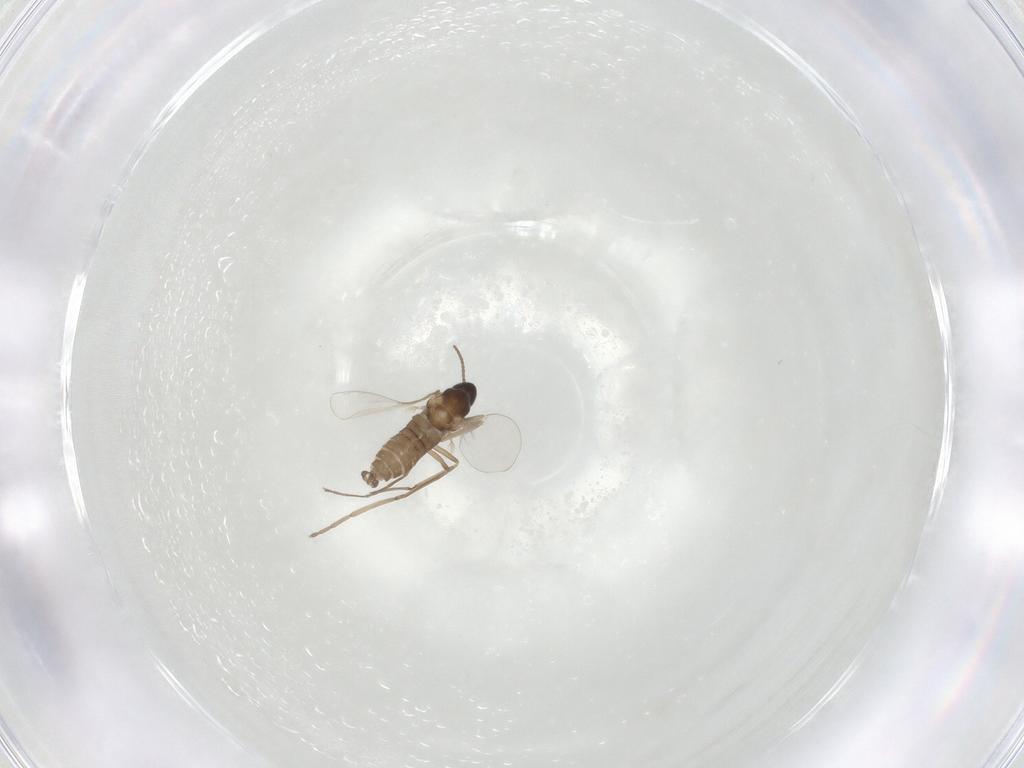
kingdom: Animalia
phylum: Arthropoda
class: Insecta
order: Diptera
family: Cecidomyiidae
